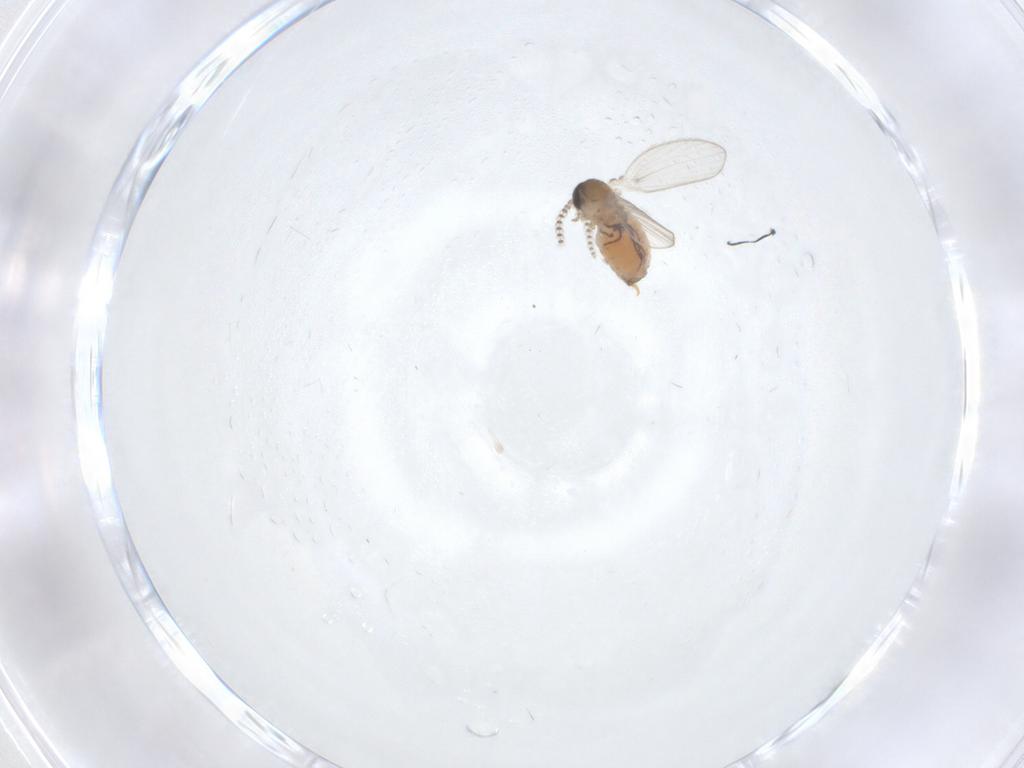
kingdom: Animalia
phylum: Arthropoda
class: Insecta
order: Diptera
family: Psychodidae
